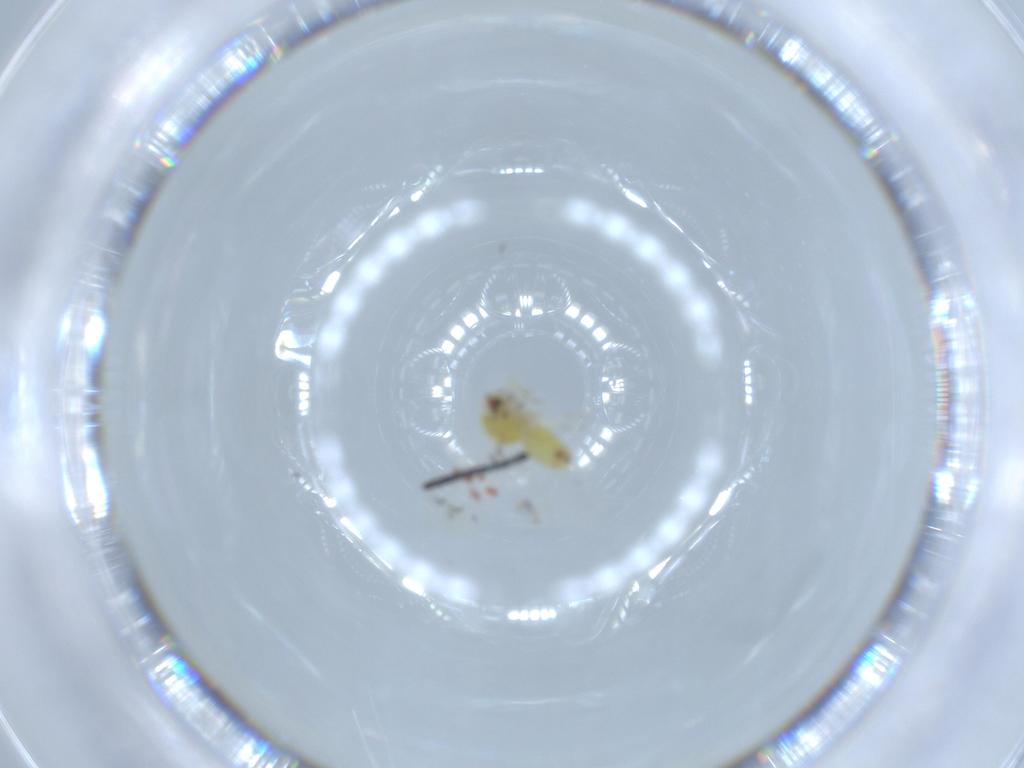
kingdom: Animalia
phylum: Arthropoda
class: Insecta
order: Hemiptera
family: Aleyrodidae
